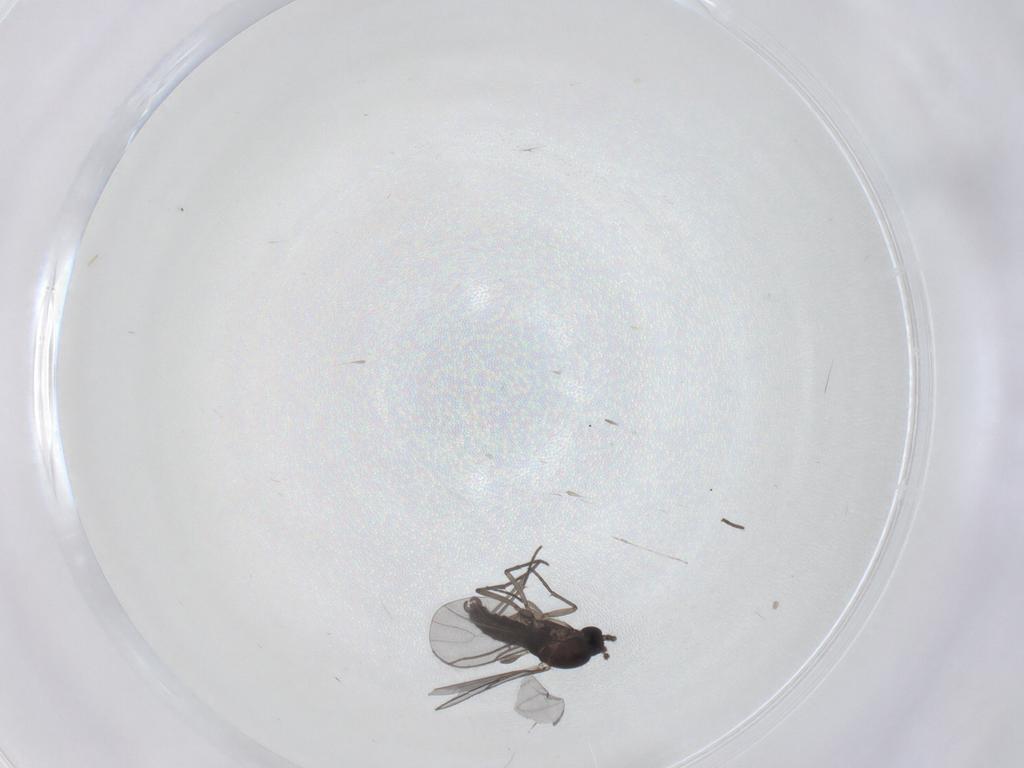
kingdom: Animalia
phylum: Arthropoda
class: Insecta
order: Diptera
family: Cecidomyiidae
